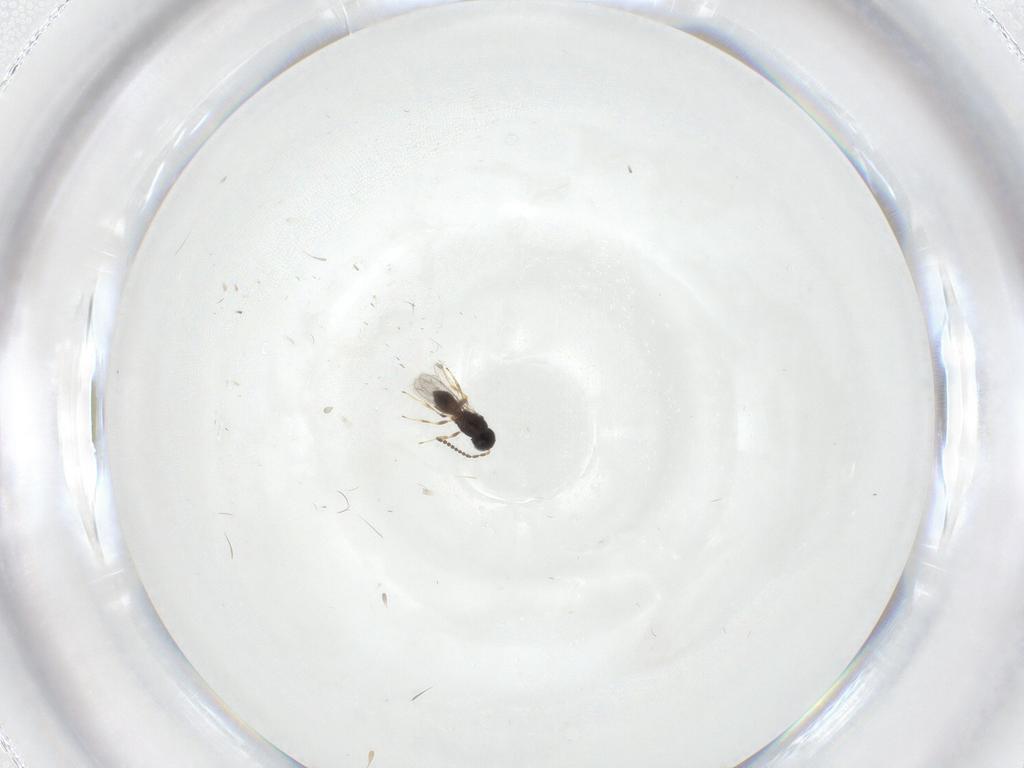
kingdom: Animalia
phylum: Arthropoda
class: Insecta
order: Hymenoptera
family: Scelionidae
